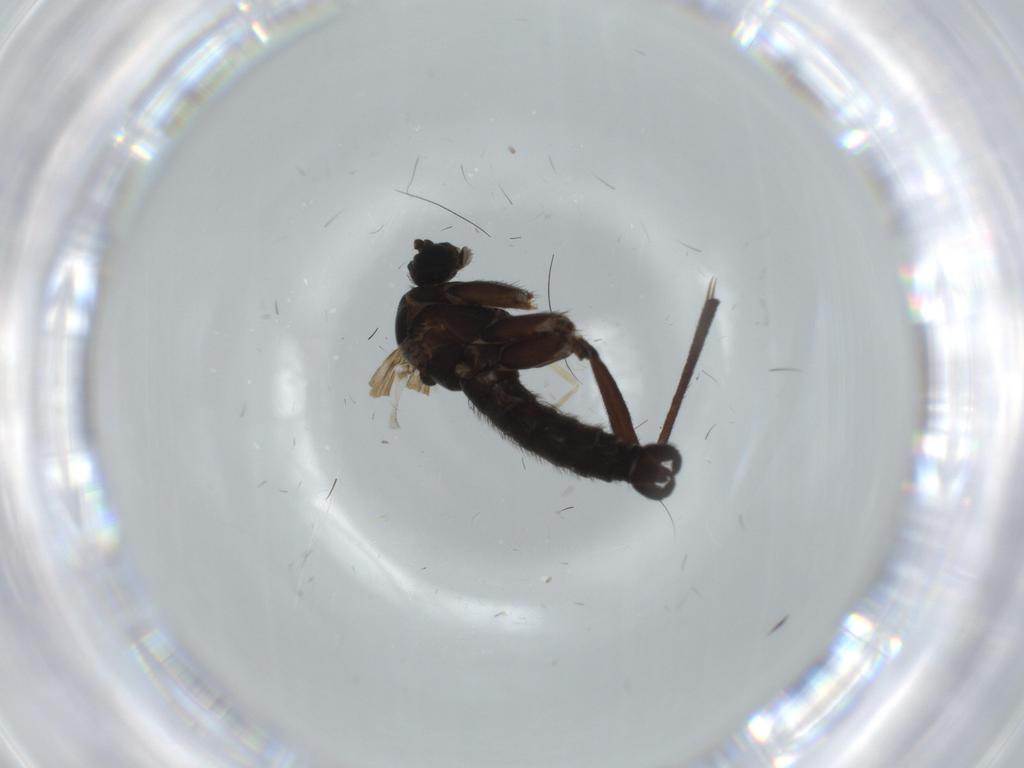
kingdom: Animalia
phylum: Arthropoda
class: Insecta
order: Diptera
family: Sciaridae
